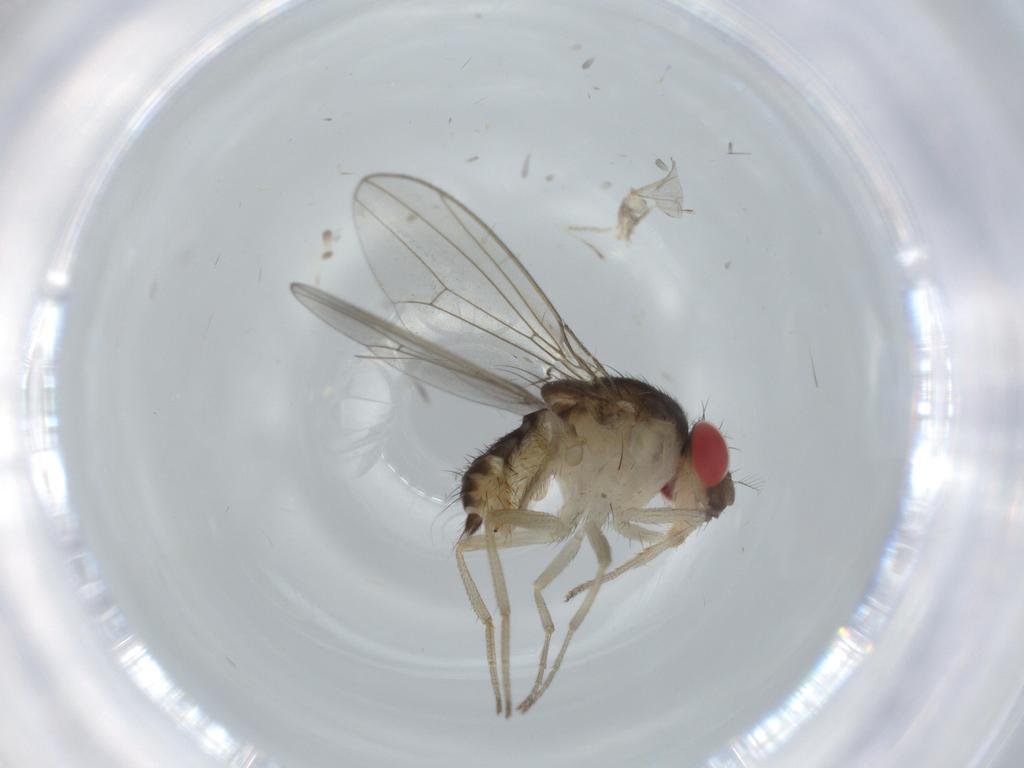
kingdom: Animalia
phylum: Arthropoda
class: Insecta
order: Diptera
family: Drosophilidae
